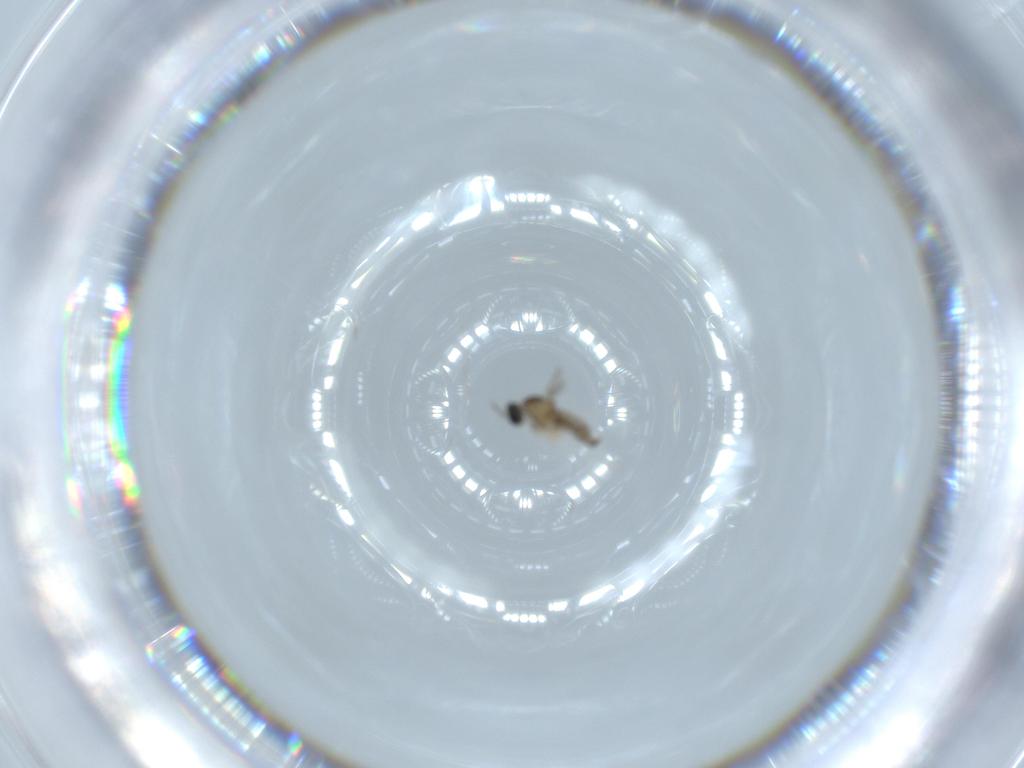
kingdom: Animalia
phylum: Arthropoda
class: Insecta
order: Diptera
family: Cecidomyiidae
